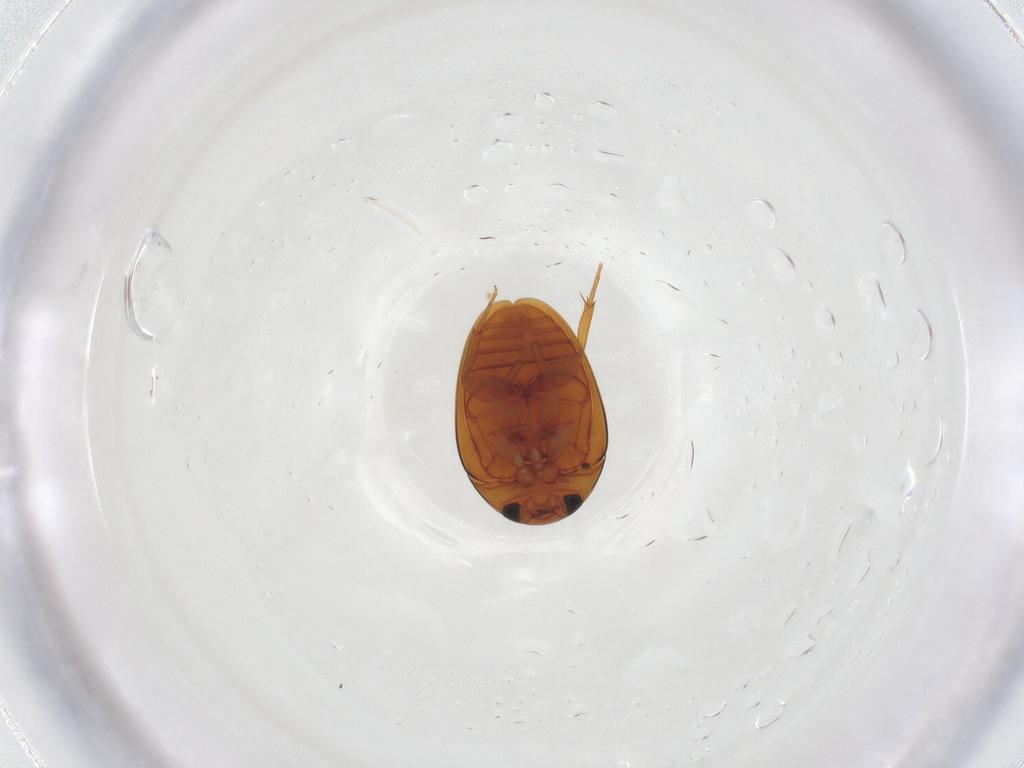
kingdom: Animalia
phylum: Arthropoda
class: Insecta
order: Coleoptera
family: Phalacridae
